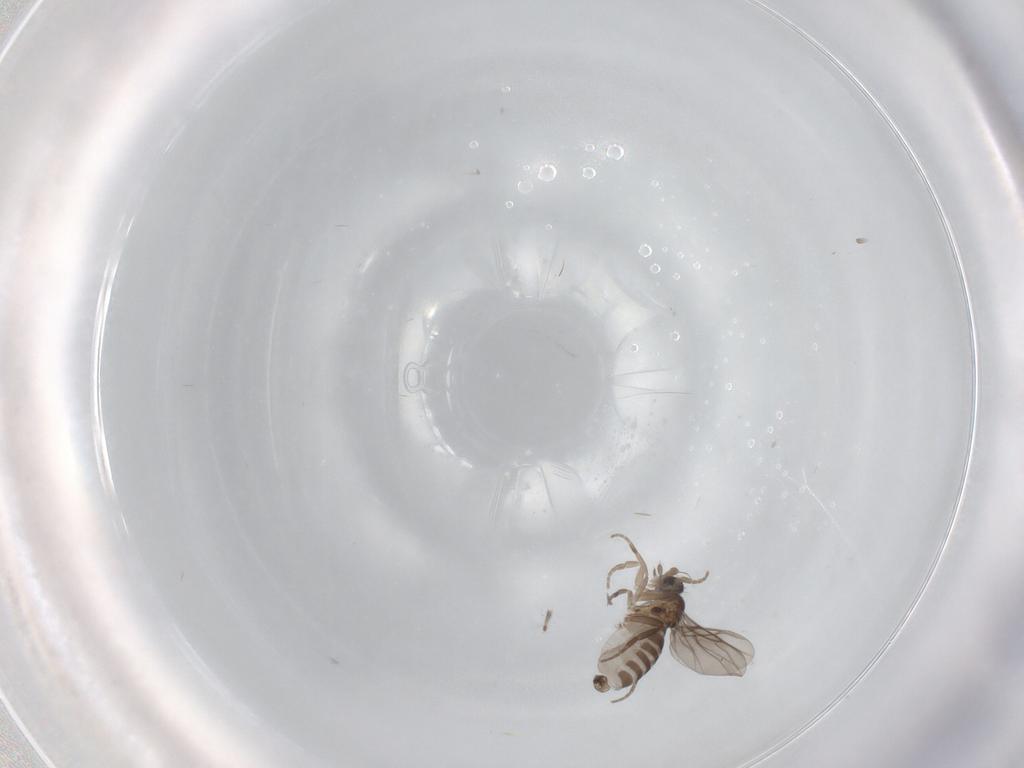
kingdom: Animalia
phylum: Arthropoda
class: Insecta
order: Diptera
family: Phoridae
